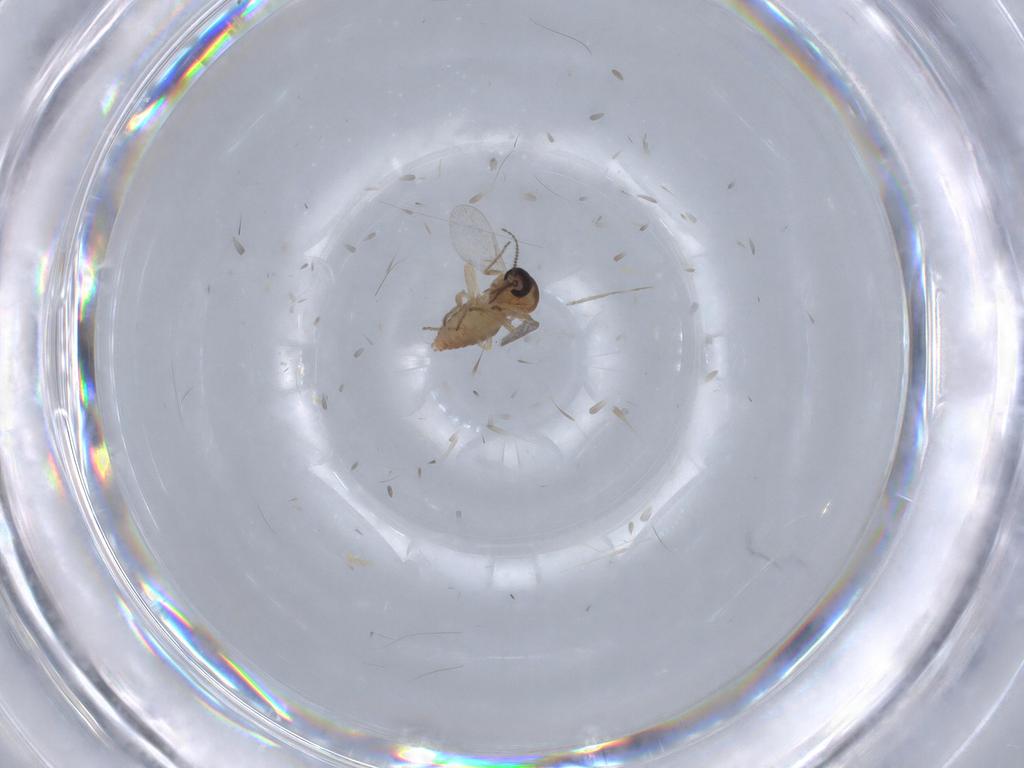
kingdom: Animalia
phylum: Arthropoda
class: Insecta
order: Diptera
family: Ceratopogonidae
